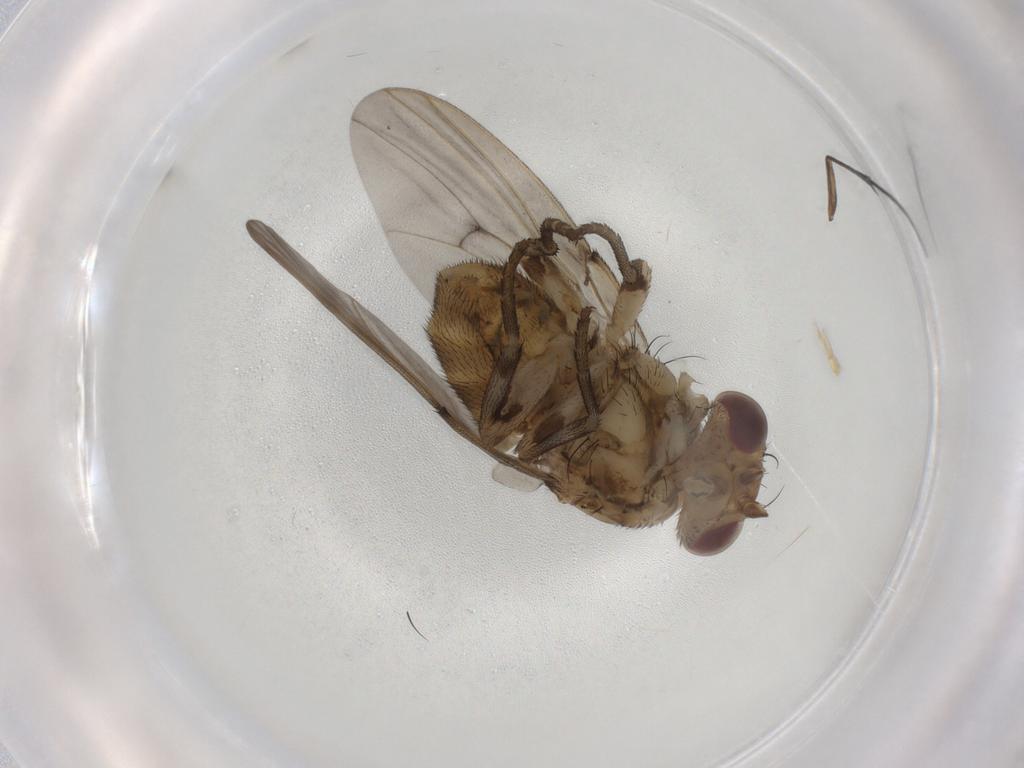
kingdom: Animalia
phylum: Arthropoda
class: Insecta
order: Diptera
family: Odiniidae
